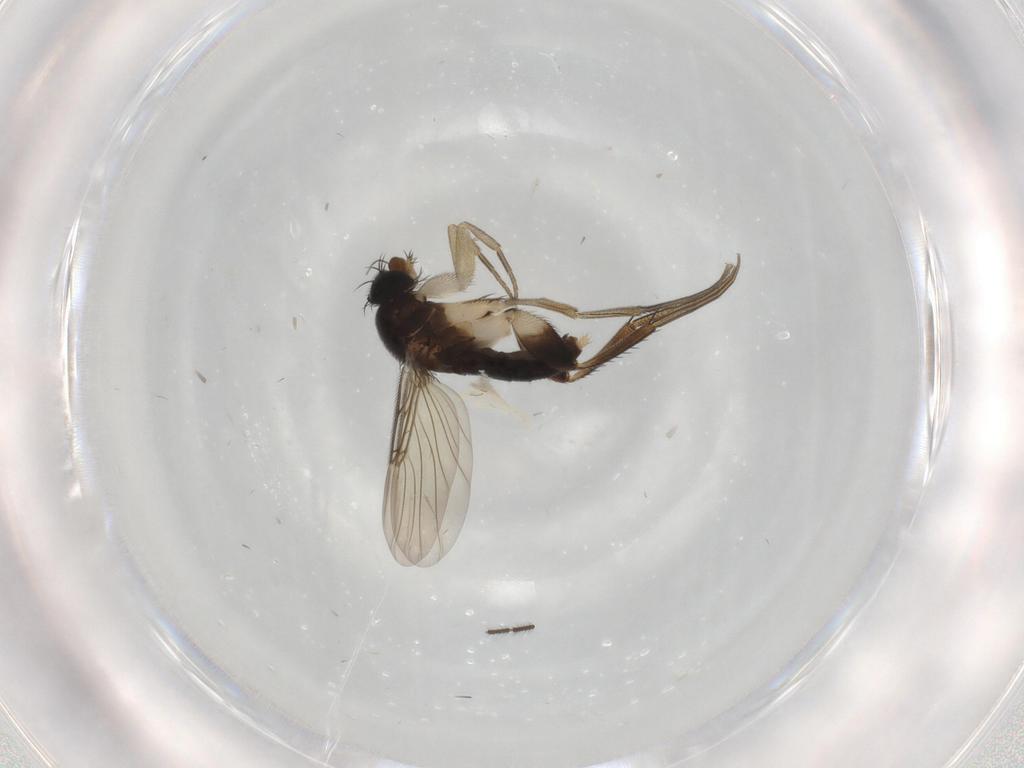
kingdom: Animalia
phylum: Arthropoda
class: Insecta
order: Diptera
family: Phoridae
